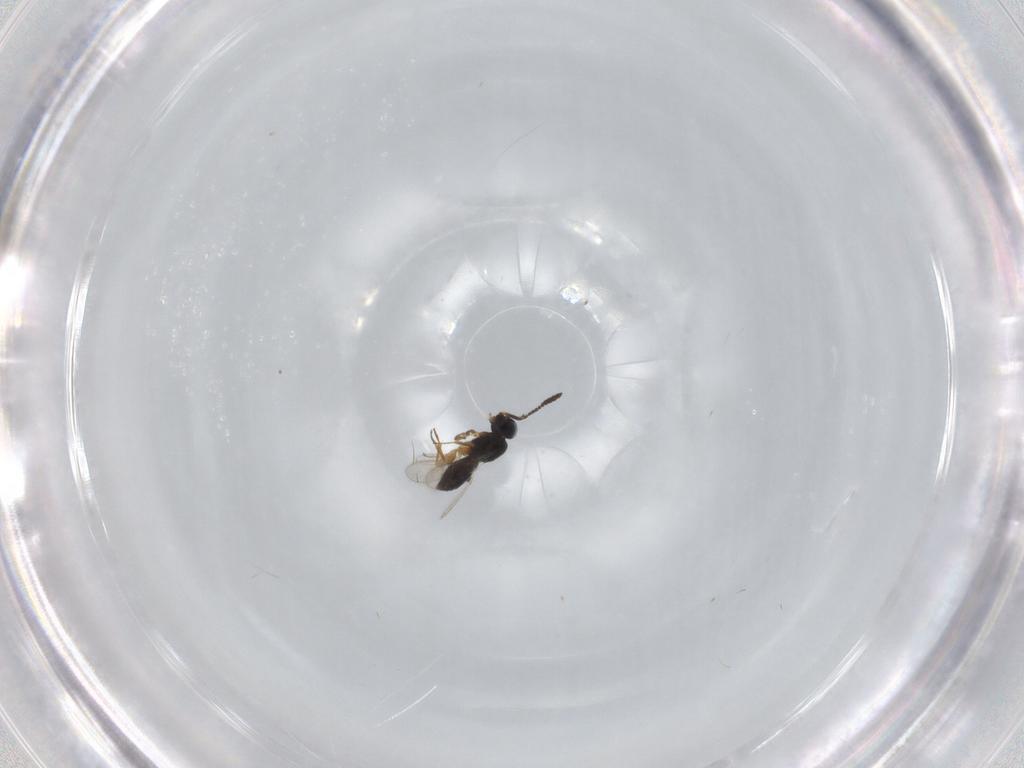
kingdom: Animalia
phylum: Arthropoda
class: Insecta
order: Hymenoptera
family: Scelionidae
